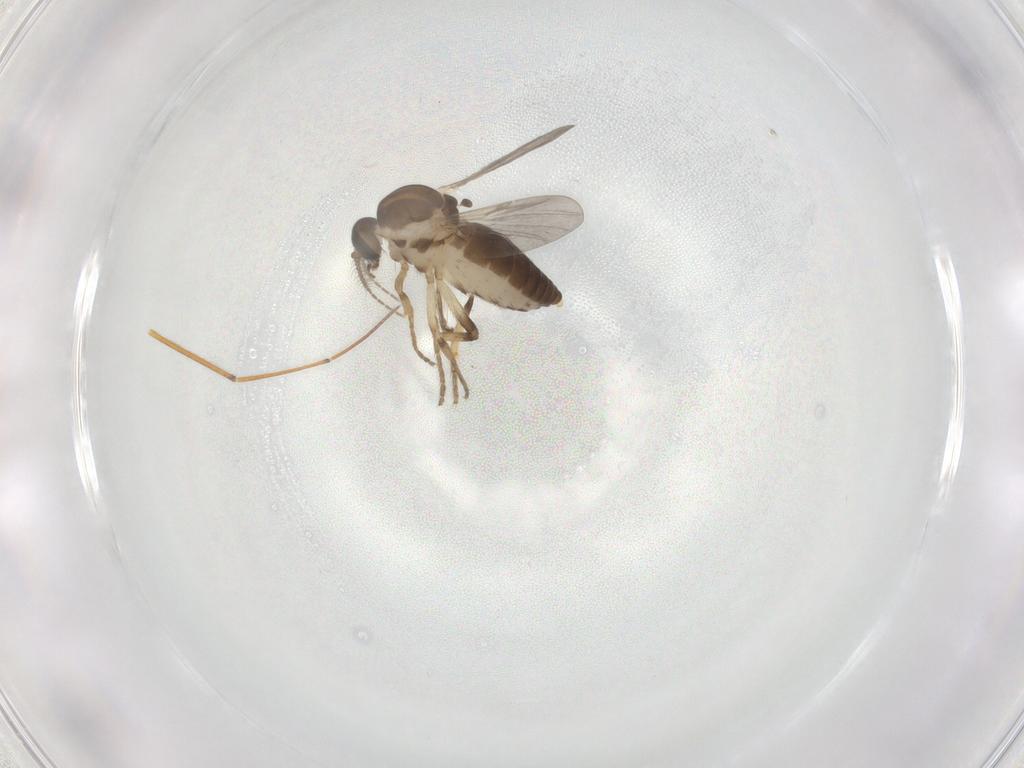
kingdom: Animalia
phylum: Arthropoda
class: Insecta
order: Diptera
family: Ceratopogonidae
